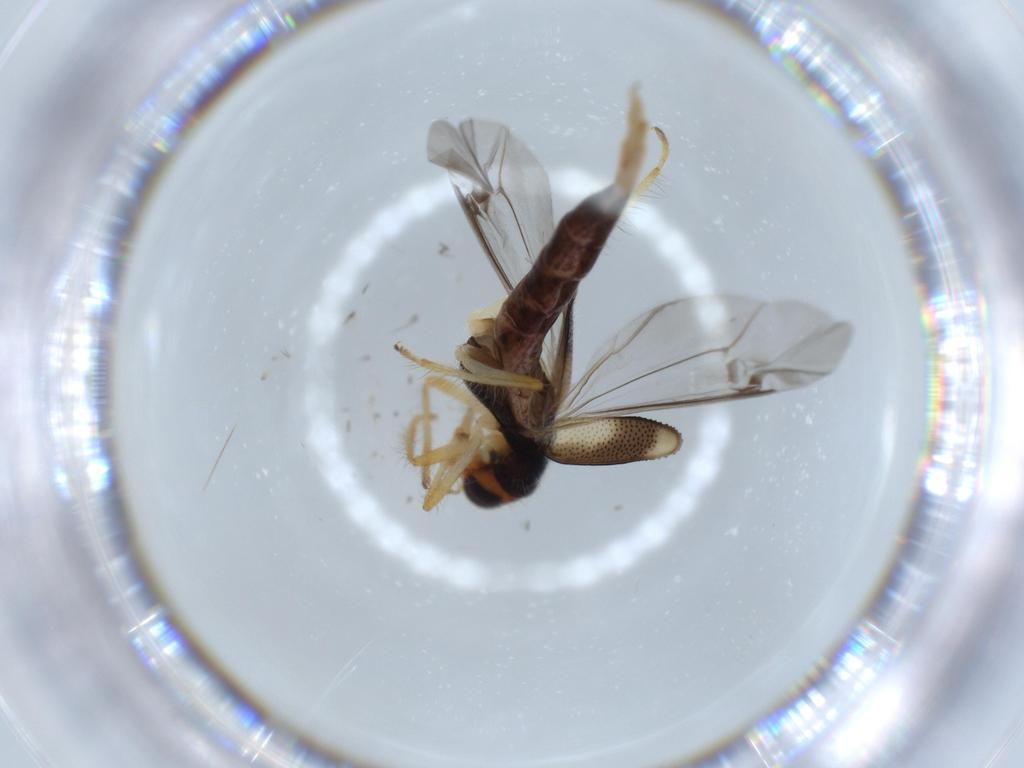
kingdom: Animalia
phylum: Arthropoda
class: Insecta
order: Coleoptera
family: Cleridae
